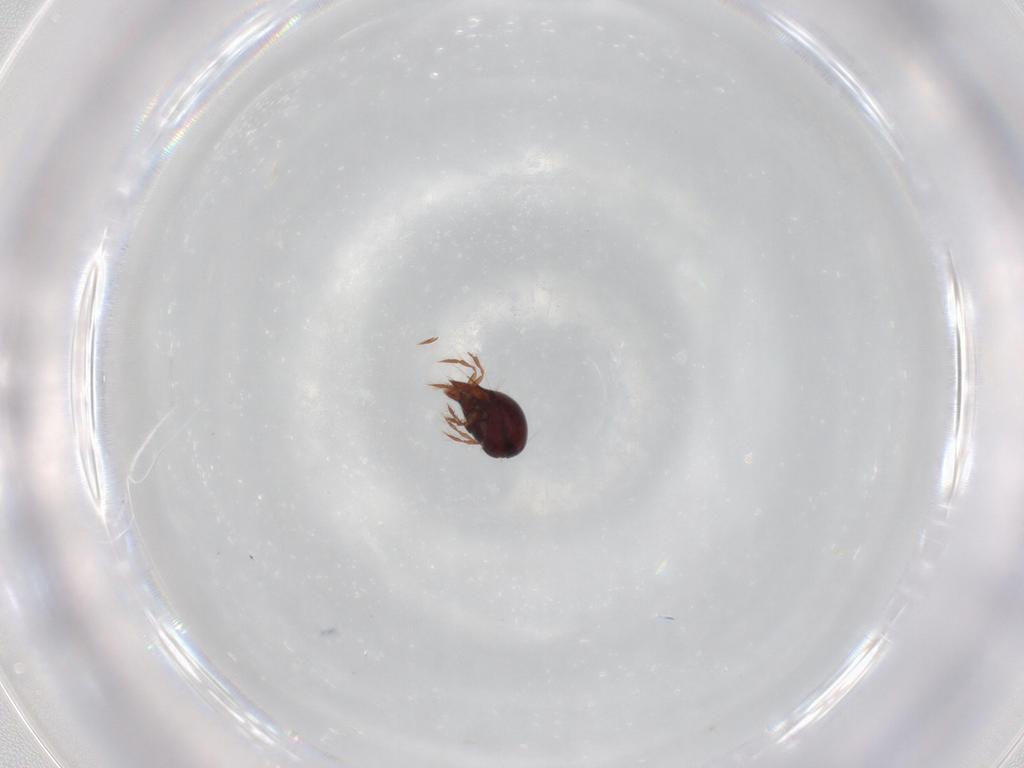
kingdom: Animalia
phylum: Arthropoda
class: Arachnida
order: Sarcoptiformes
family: Ceratoppiidae
